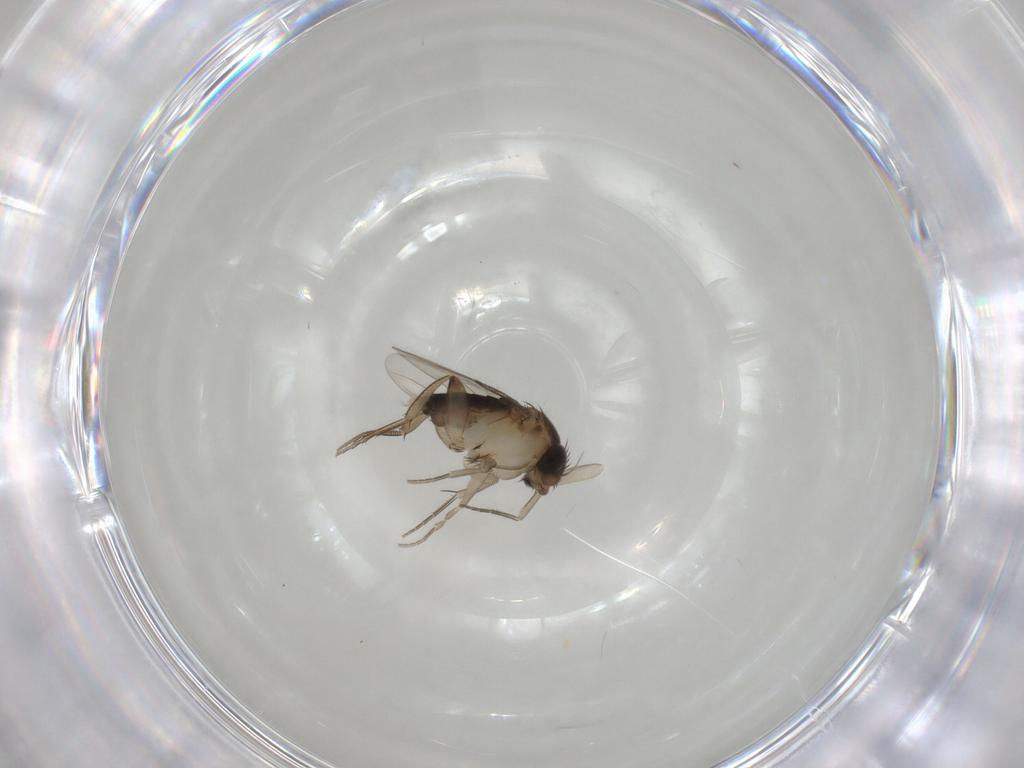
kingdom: Animalia
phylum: Arthropoda
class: Insecta
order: Diptera
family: Phoridae
